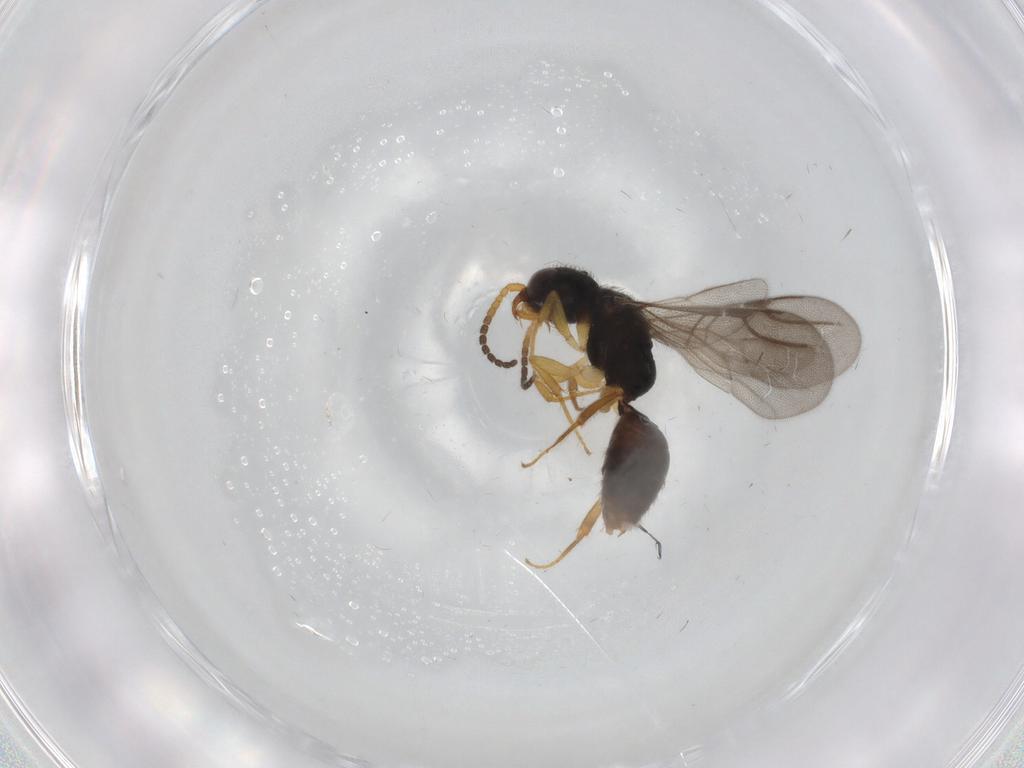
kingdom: Animalia
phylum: Arthropoda
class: Insecta
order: Hymenoptera
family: Bethylidae
